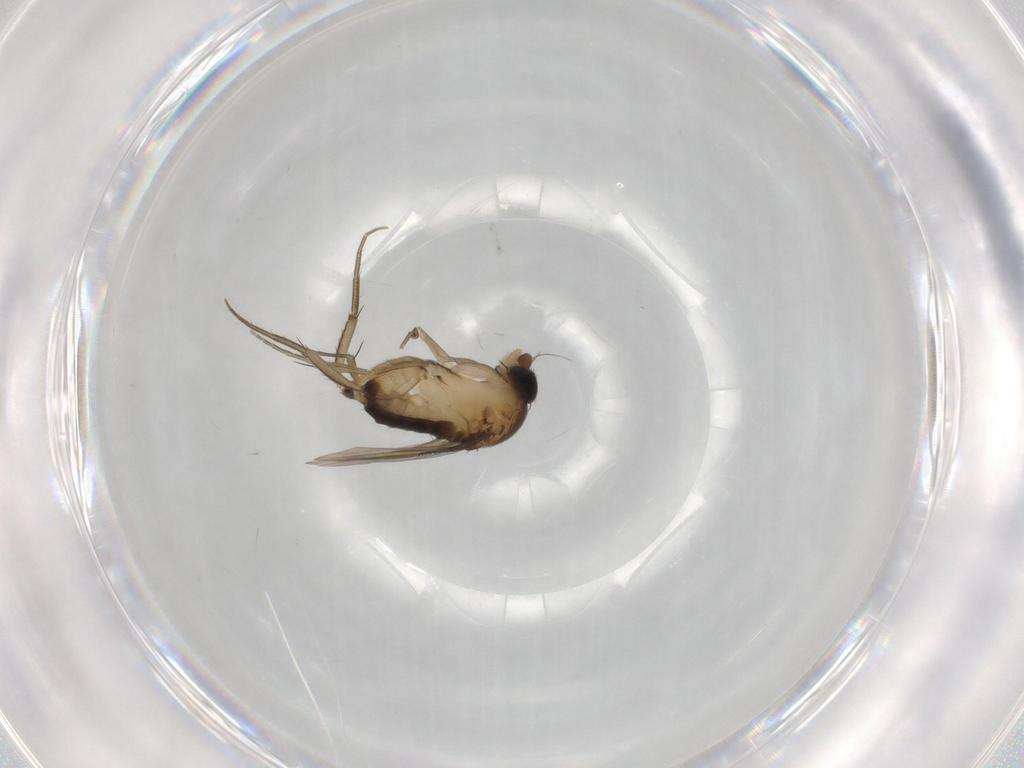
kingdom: Animalia
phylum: Arthropoda
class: Insecta
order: Diptera
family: Phoridae
